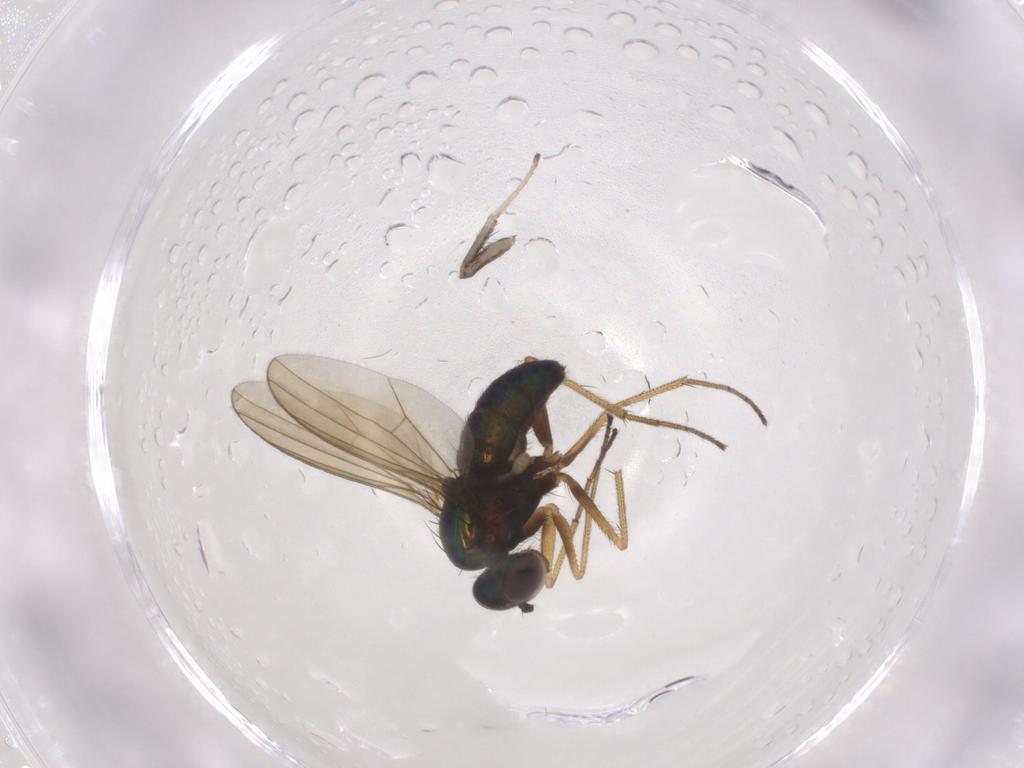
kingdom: Animalia
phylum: Arthropoda
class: Insecta
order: Diptera
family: Dolichopodidae
